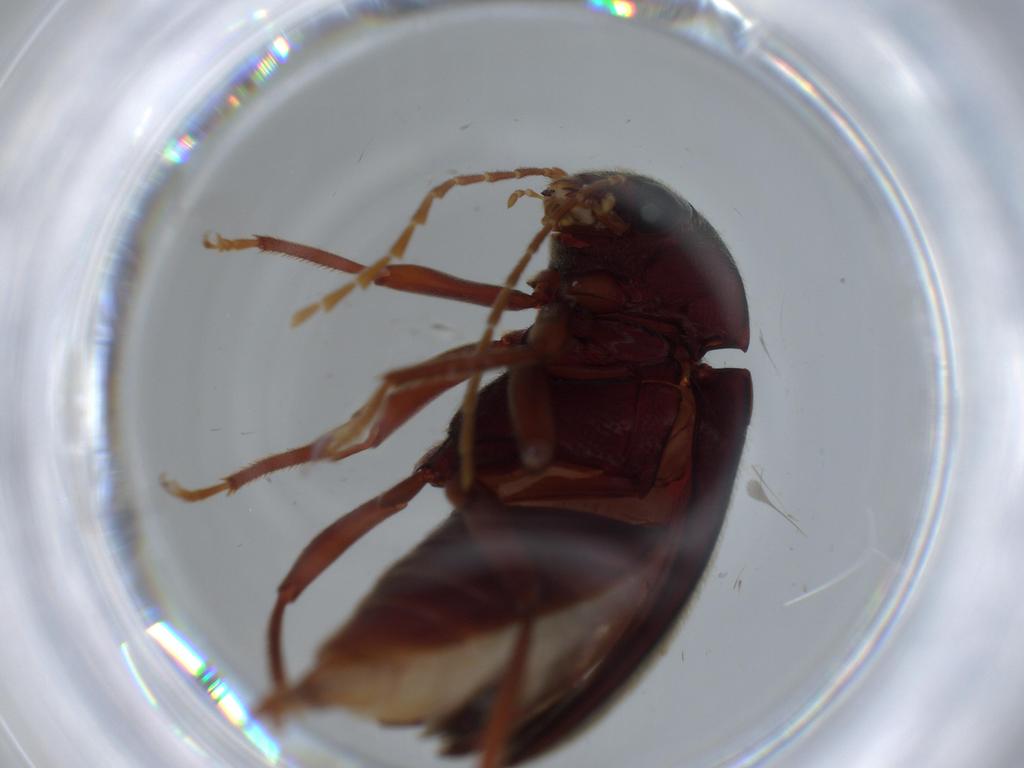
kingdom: Animalia
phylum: Arthropoda
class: Insecta
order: Coleoptera
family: Ptilodactylidae
